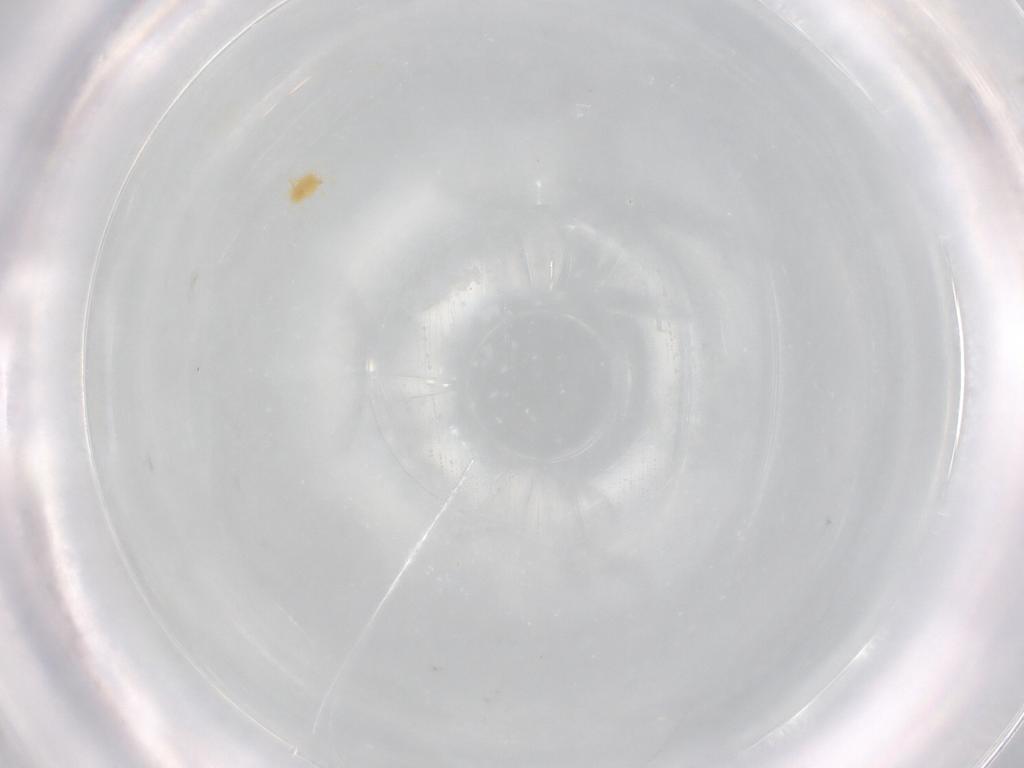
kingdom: Animalia
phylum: Arthropoda
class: Arachnida
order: Trombidiformes
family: Tetranychidae
